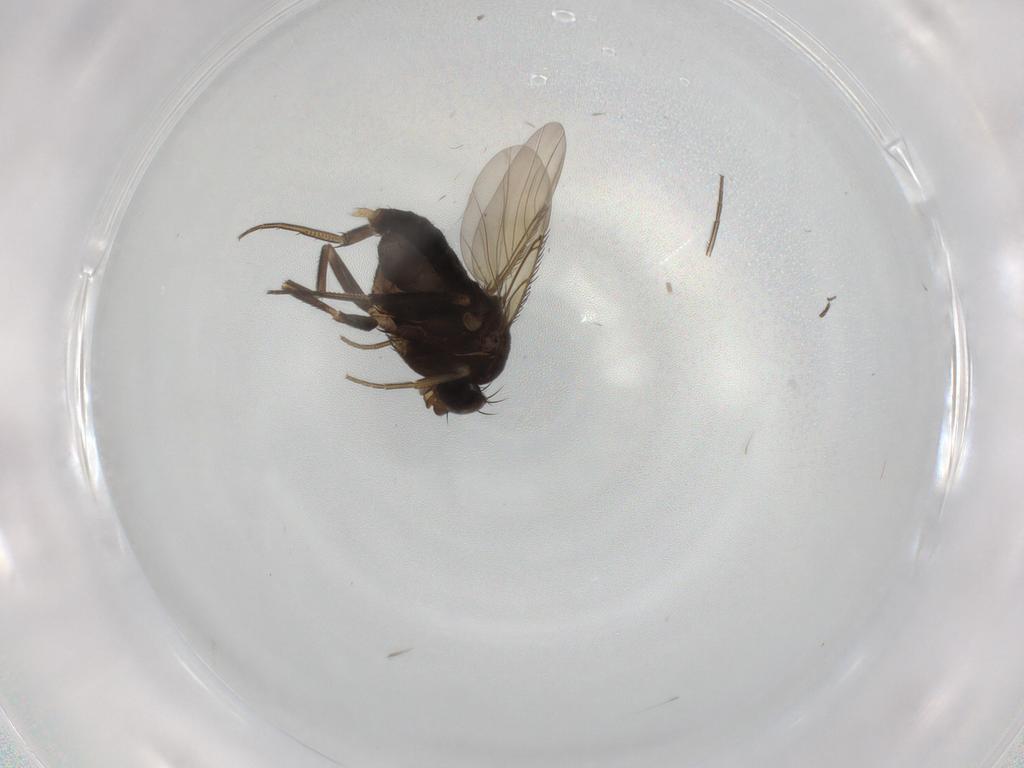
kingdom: Animalia
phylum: Arthropoda
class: Insecta
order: Diptera
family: Phoridae
